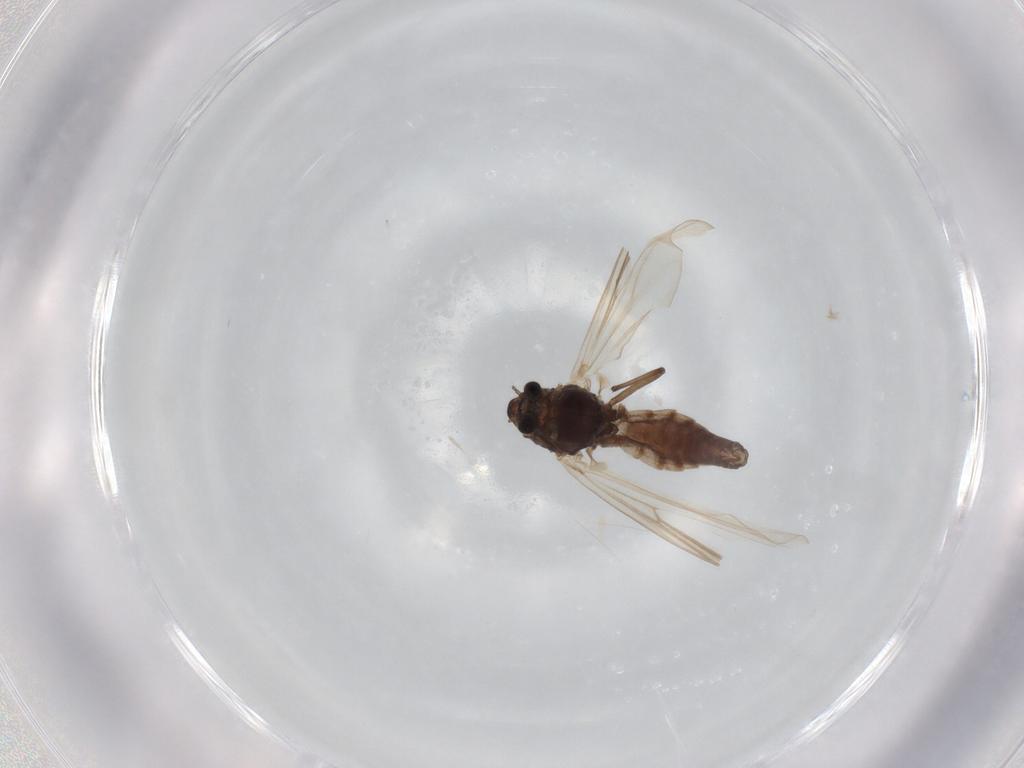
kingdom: Animalia
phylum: Arthropoda
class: Insecta
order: Diptera
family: Chironomidae
